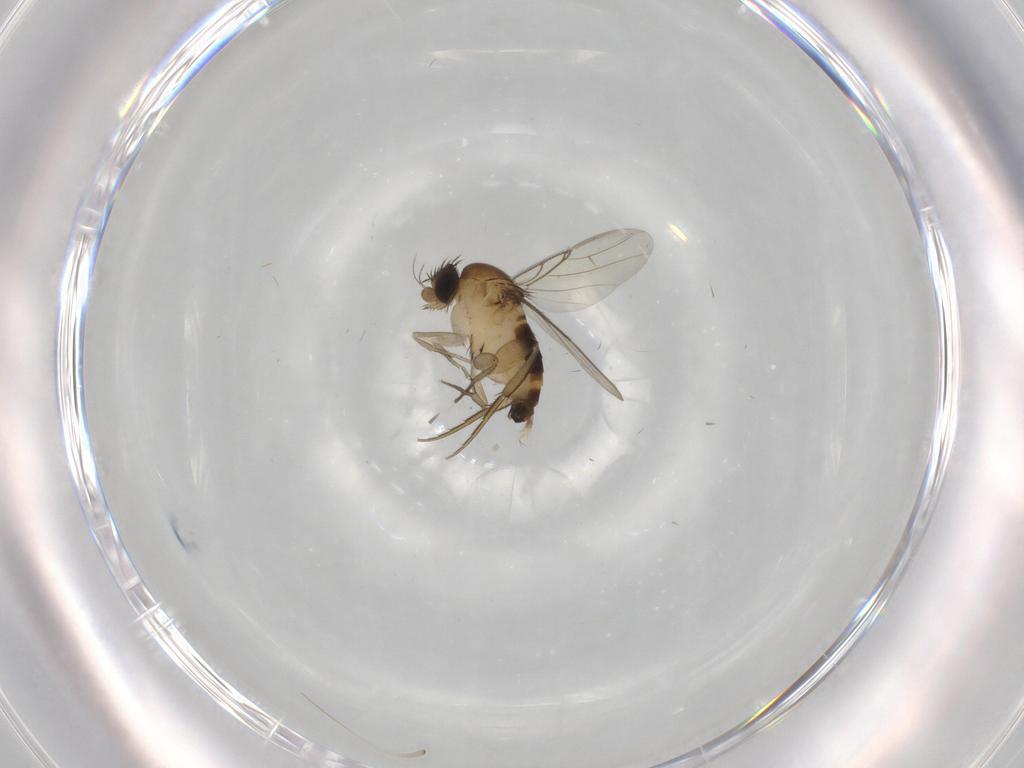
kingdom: Animalia
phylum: Arthropoda
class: Insecta
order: Diptera
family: Phoridae
